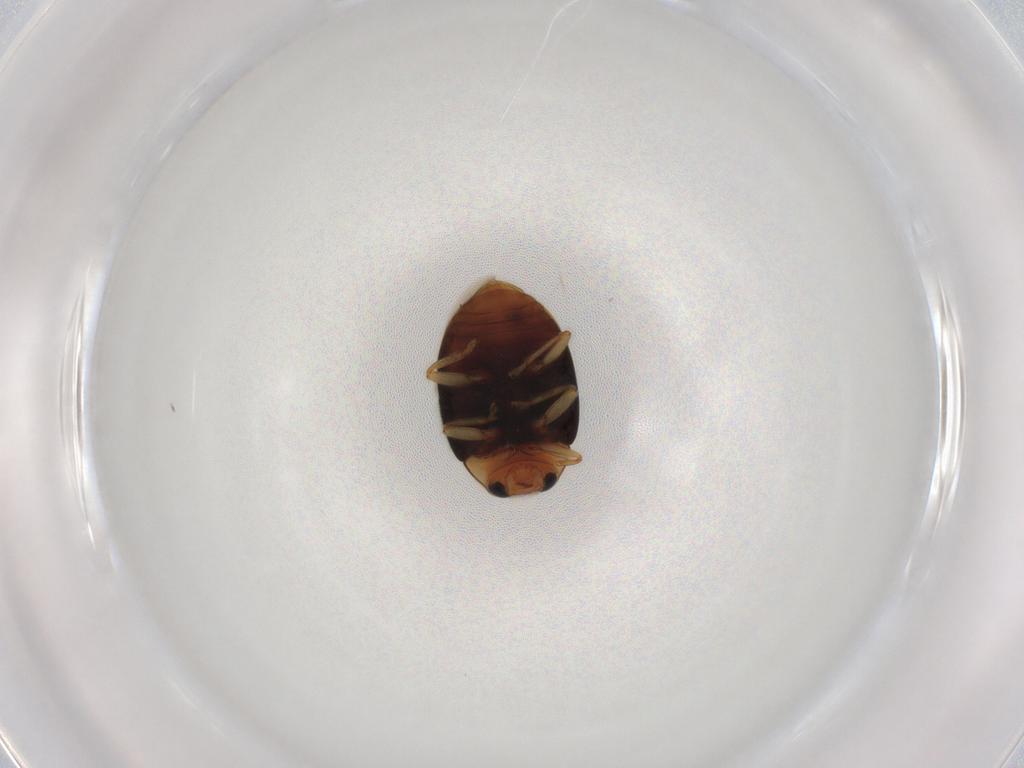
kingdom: Animalia
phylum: Arthropoda
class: Insecta
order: Coleoptera
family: Coccinellidae
